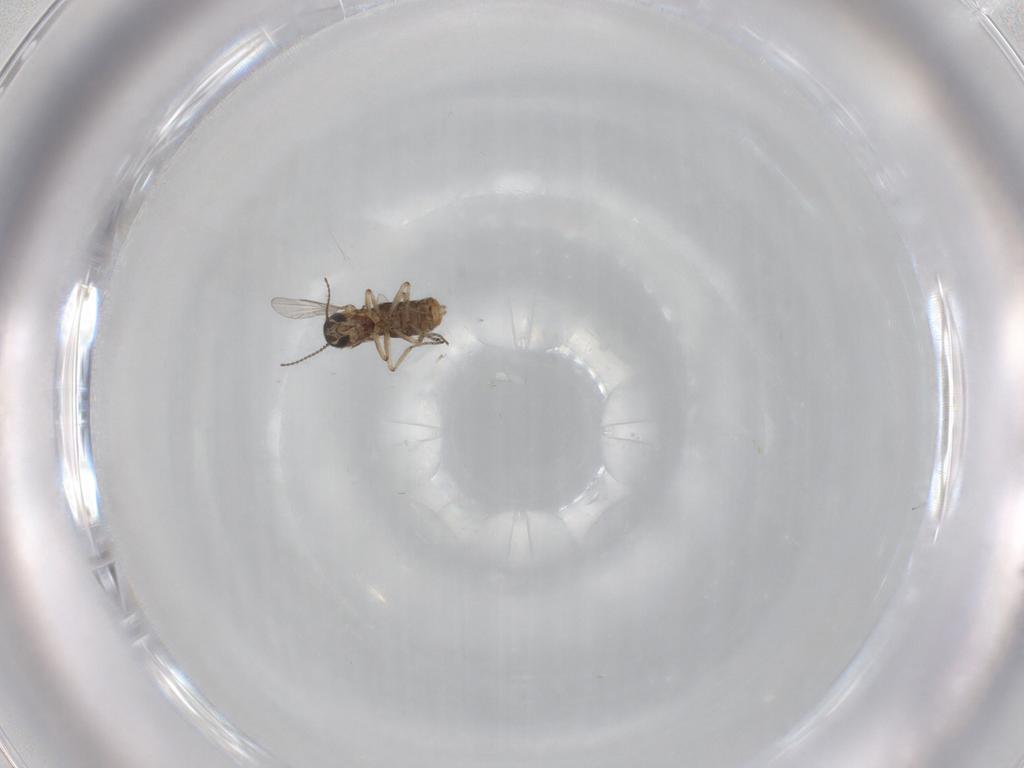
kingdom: Animalia
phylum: Arthropoda
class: Insecta
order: Diptera
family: Ceratopogonidae
